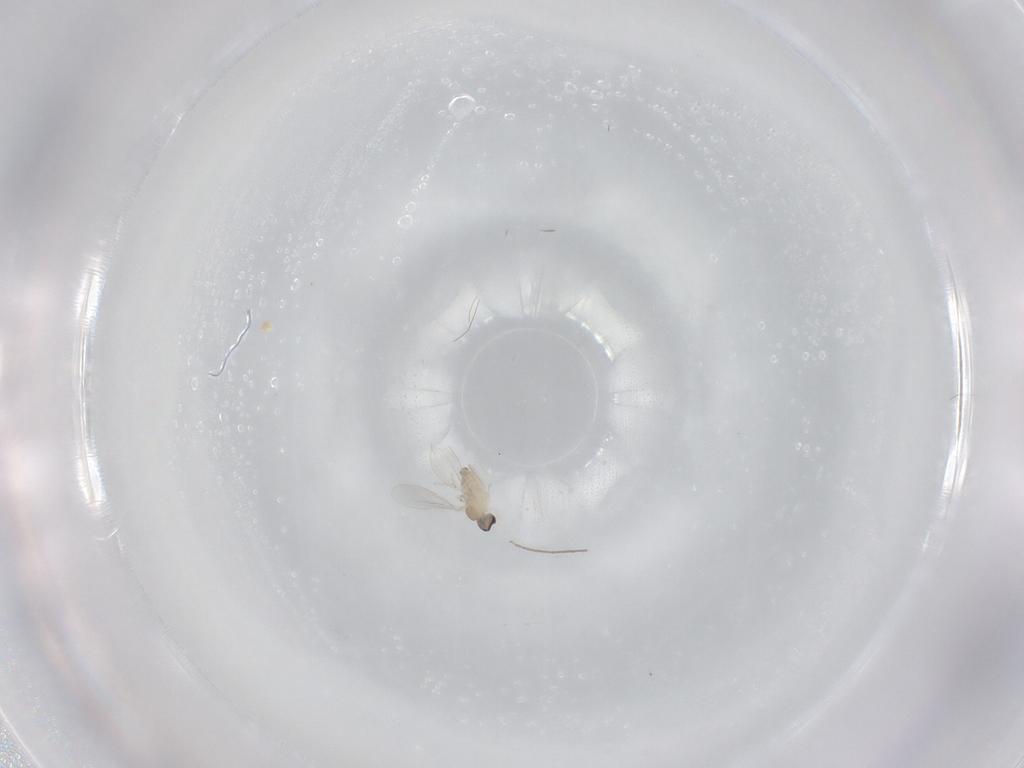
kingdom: Animalia
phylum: Arthropoda
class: Insecta
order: Diptera
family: Cecidomyiidae
